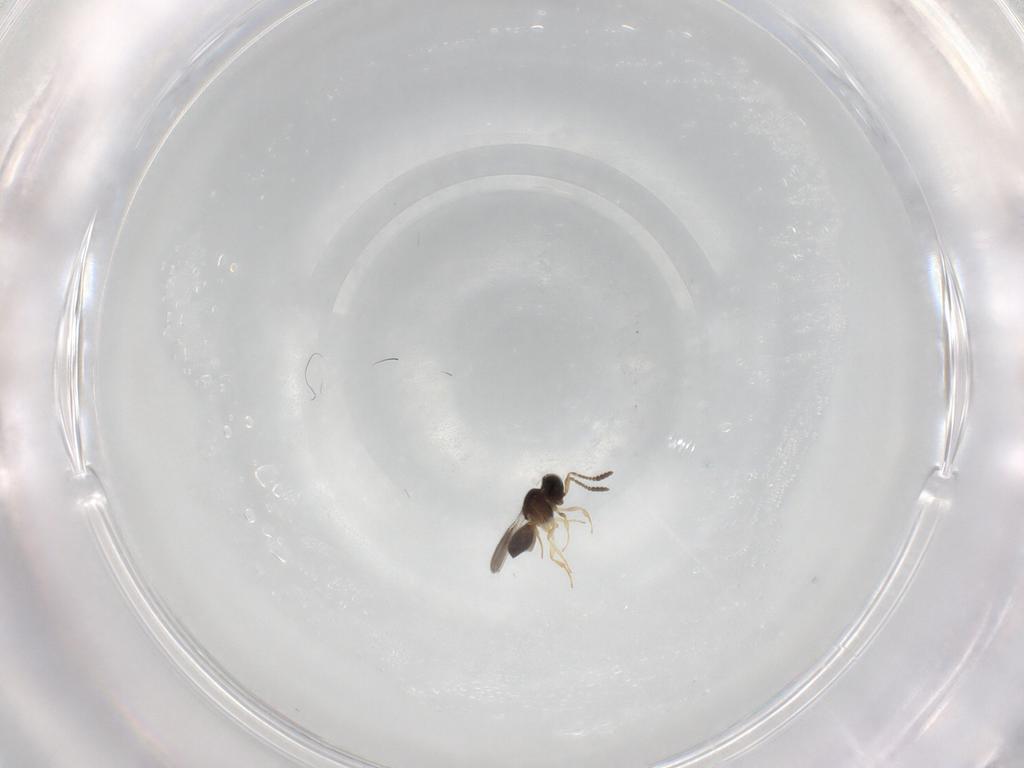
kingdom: Animalia
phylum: Arthropoda
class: Insecta
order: Hymenoptera
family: Scelionidae
